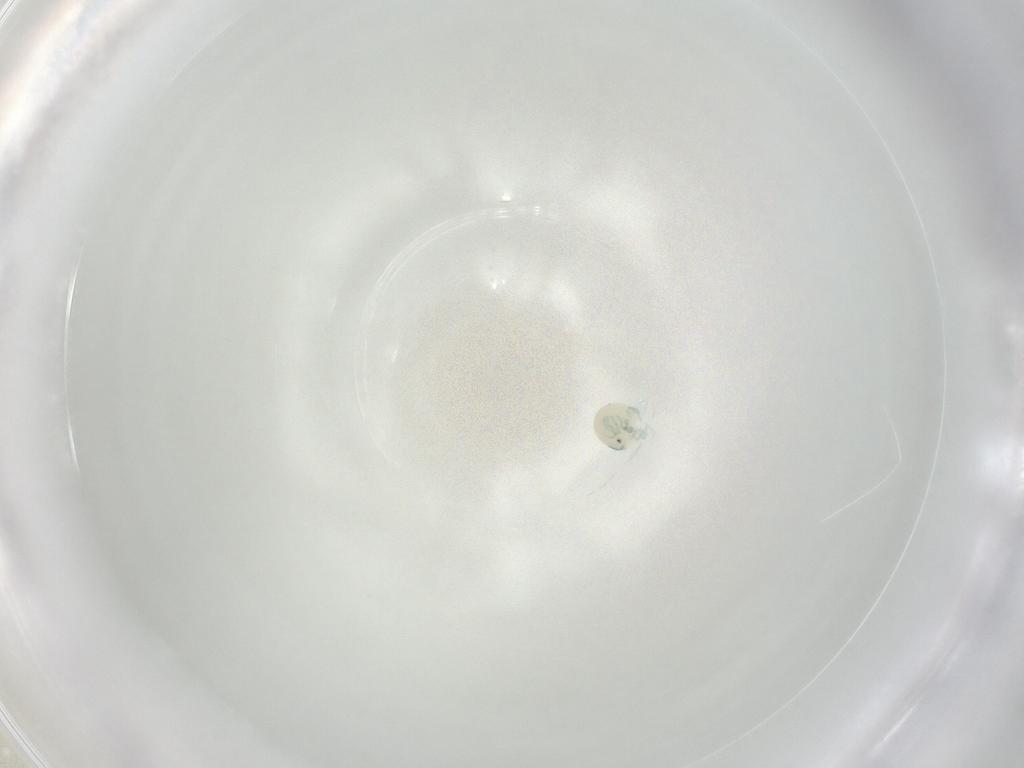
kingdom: Animalia
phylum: Arthropoda
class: Arachnida
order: Trombidiformes
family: Arrenuridae
